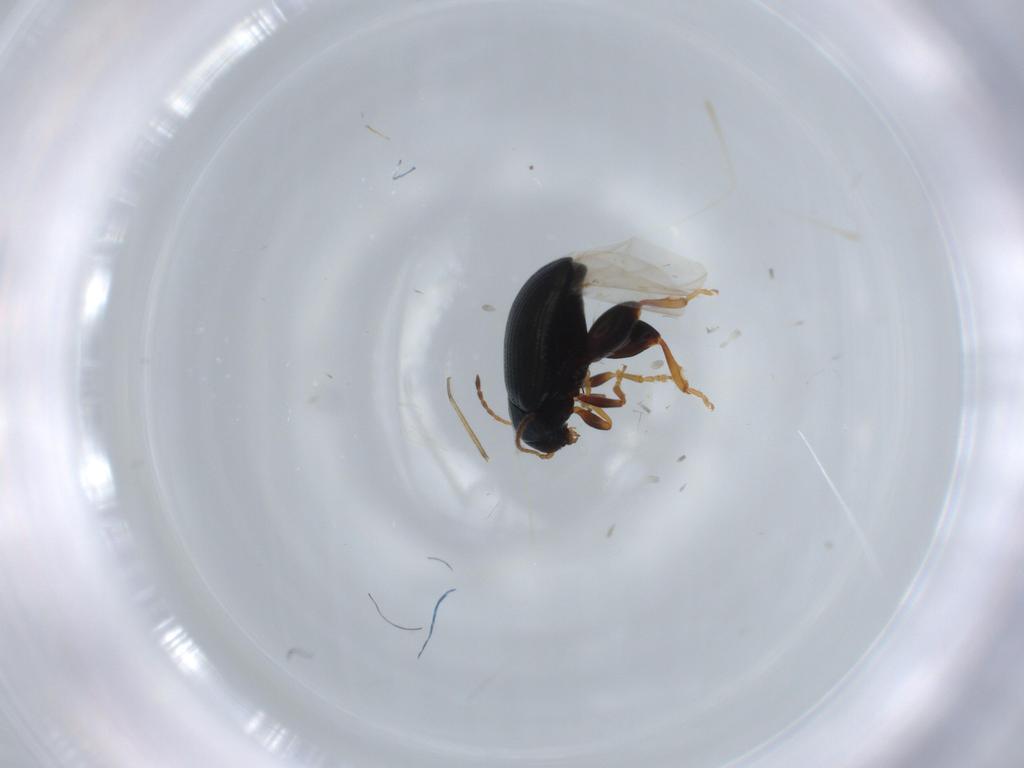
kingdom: Animalia
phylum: Arthropoda
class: Insecta
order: Coleoptera
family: Chrysomelidae
